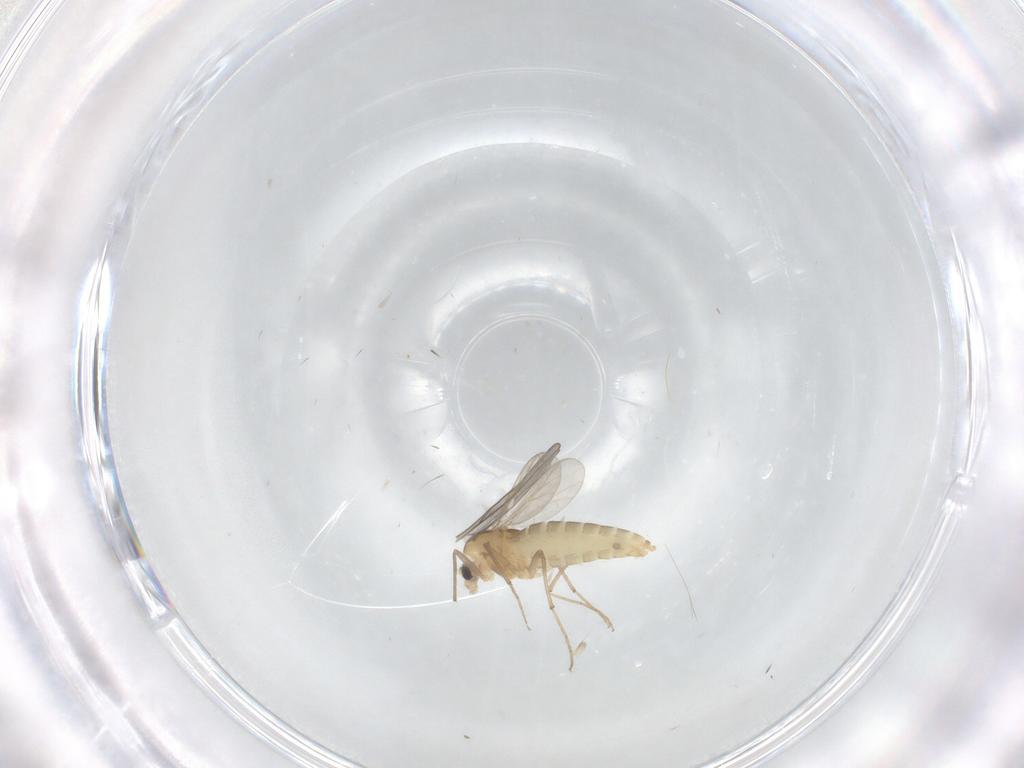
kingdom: Animalia
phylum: Arthropoda
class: Insecta
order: Diptera
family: Chironomidae
